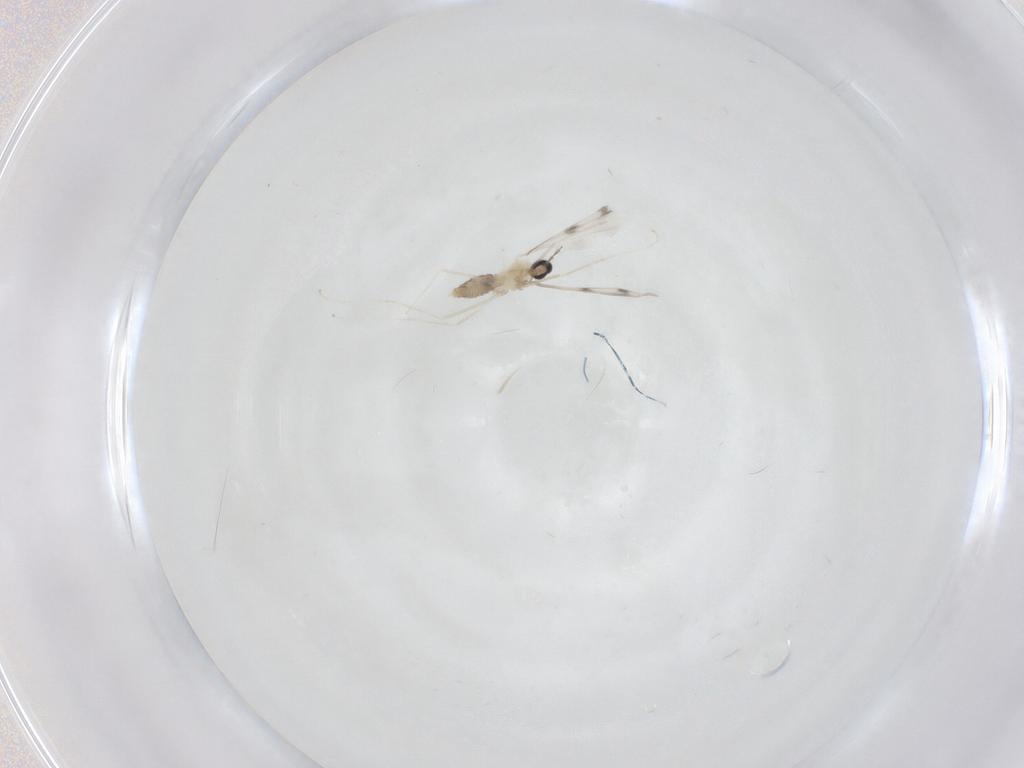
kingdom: Animalia
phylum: Arthropoda
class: Insecta
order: Diptera
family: Cecidomyiidae
